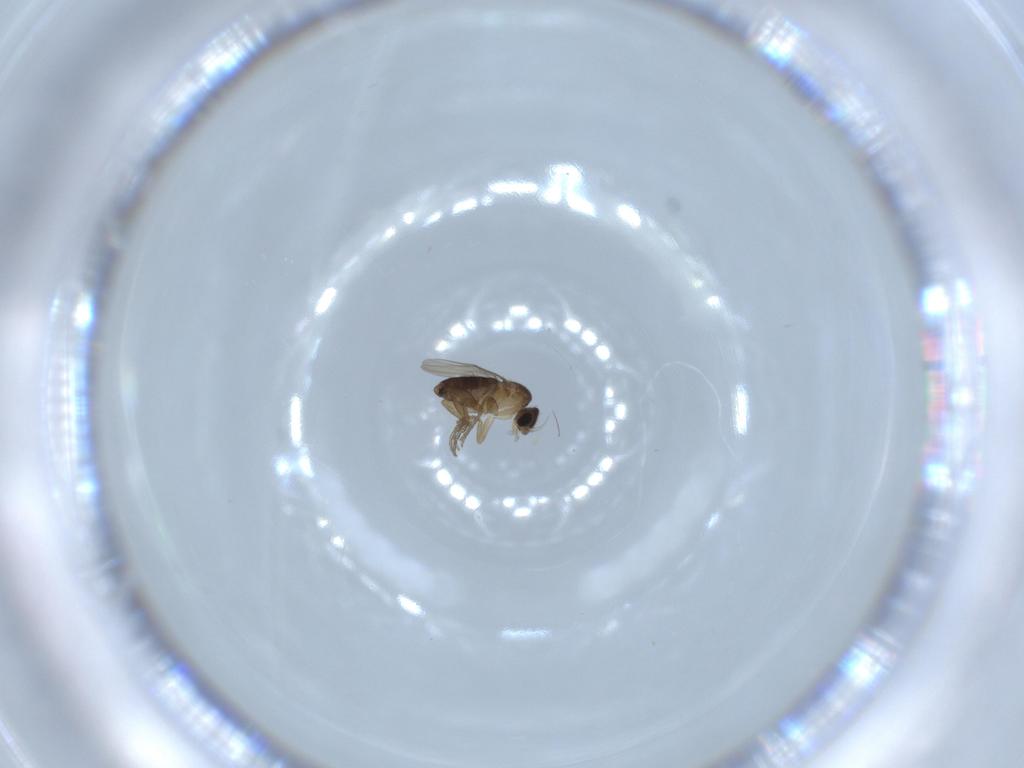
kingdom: Animalia
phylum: Arthropoda
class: Insecta
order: Diptera
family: Phoridae
